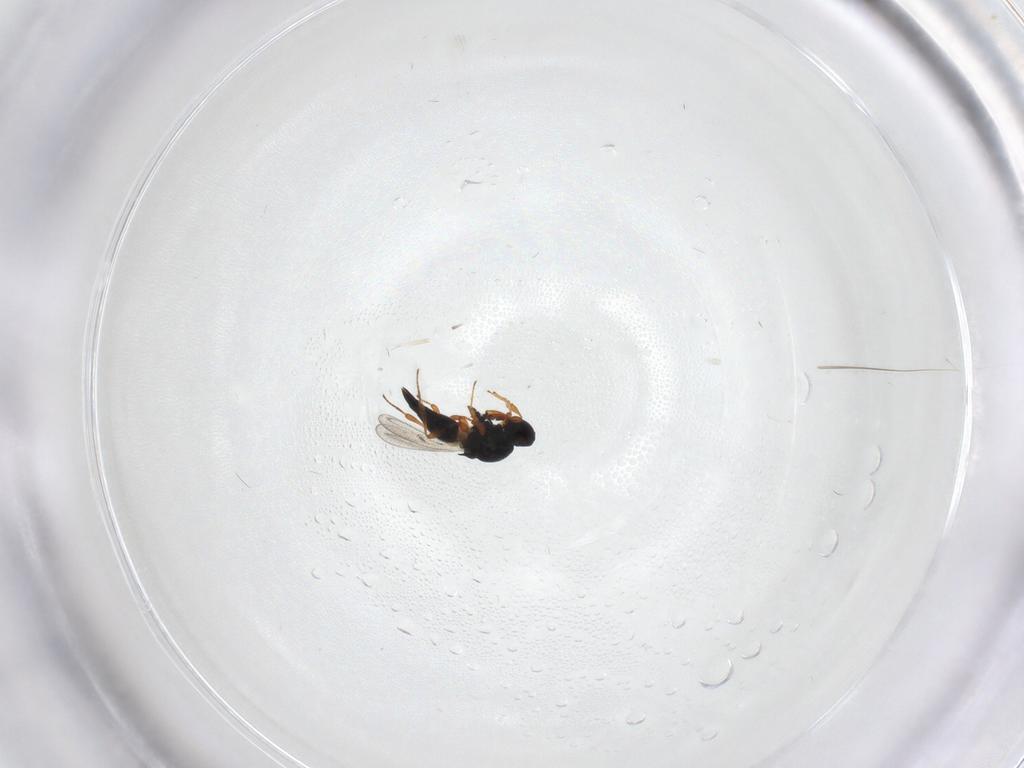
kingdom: Animalia
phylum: Arthropoda
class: Insecta
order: Hymenoptera
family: Platygastridae
